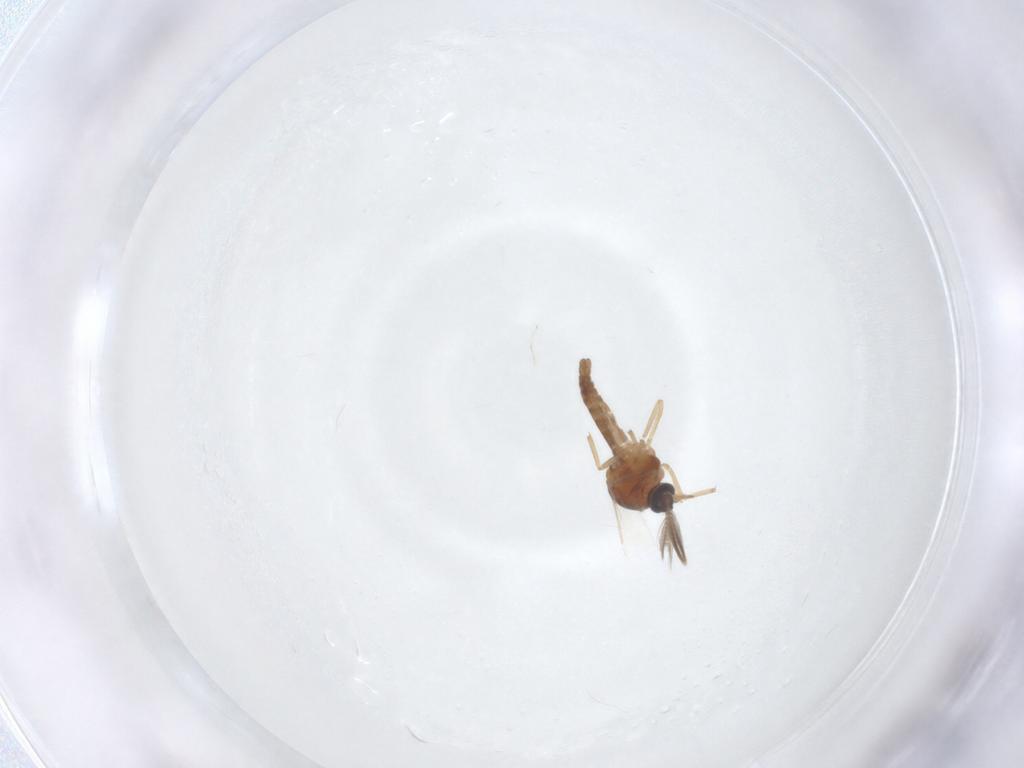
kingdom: Animalia
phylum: Arthropoda
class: Insecta
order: Diptera
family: Ceratopogonidae
